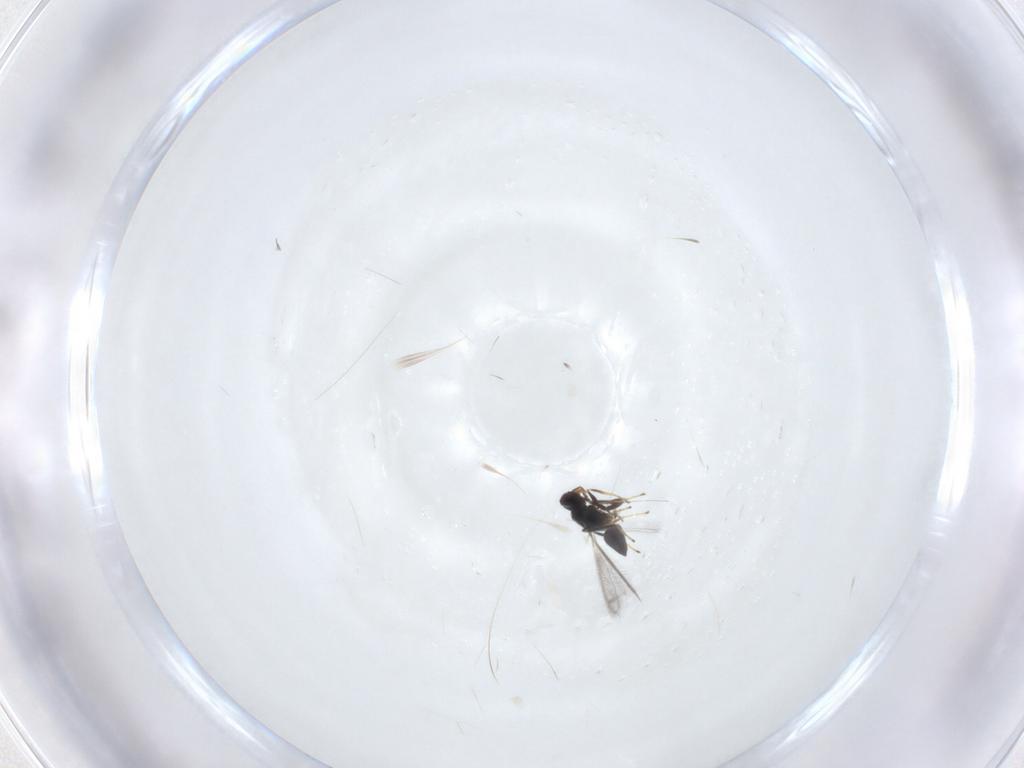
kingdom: Animalia
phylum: Arthropoda
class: Insecta
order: Hymenoptera
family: Mymaridae
